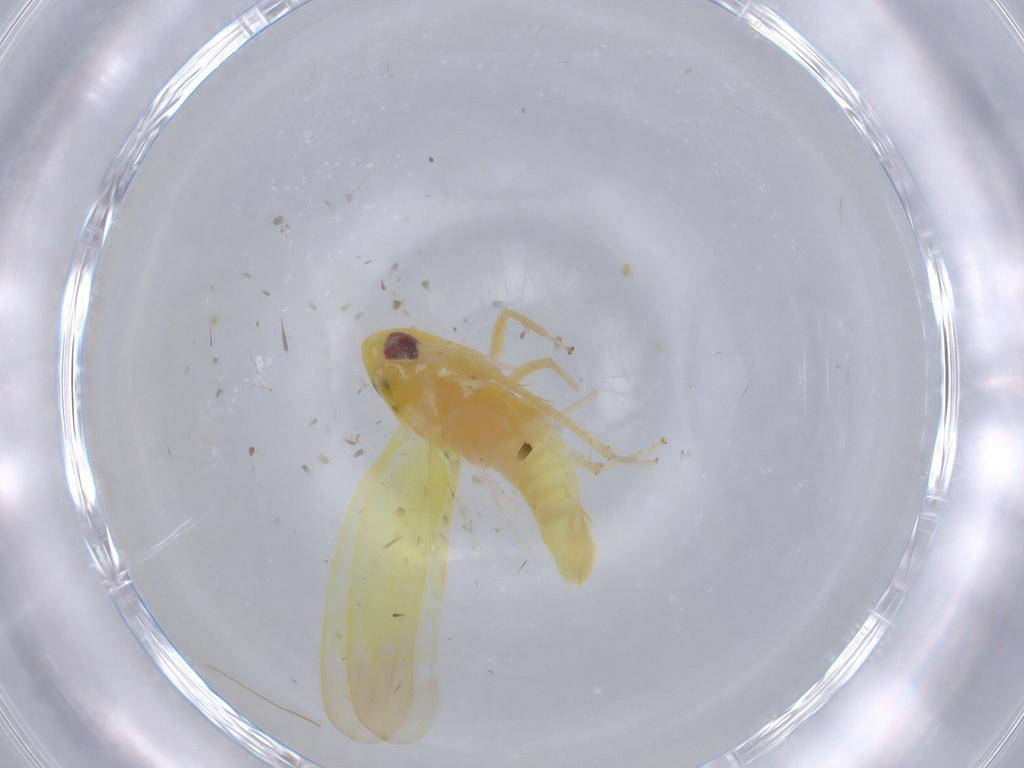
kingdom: Animalia
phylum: Arthropoda
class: Insecta
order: Hemiptera
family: Cicadellidae
